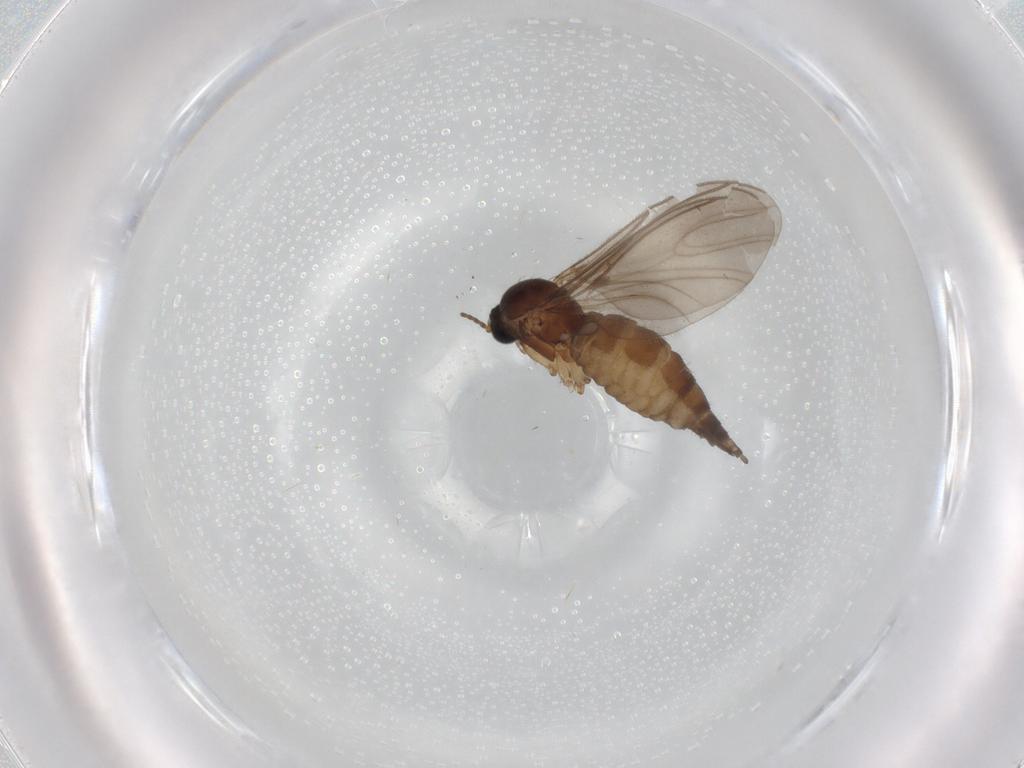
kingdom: Animalia
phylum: Arthropoda
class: Insecta
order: Diptera
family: Sciaridae
